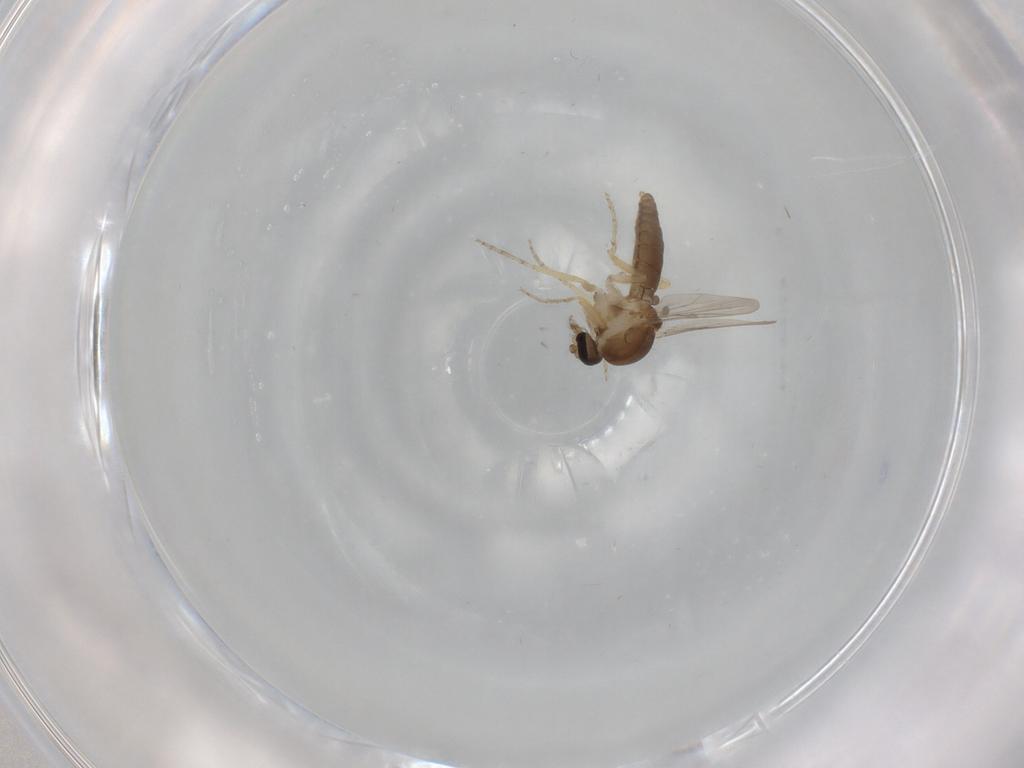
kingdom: Animalia
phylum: Arthropoda
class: Insecta
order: Diptera
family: Ceratopogonidae
